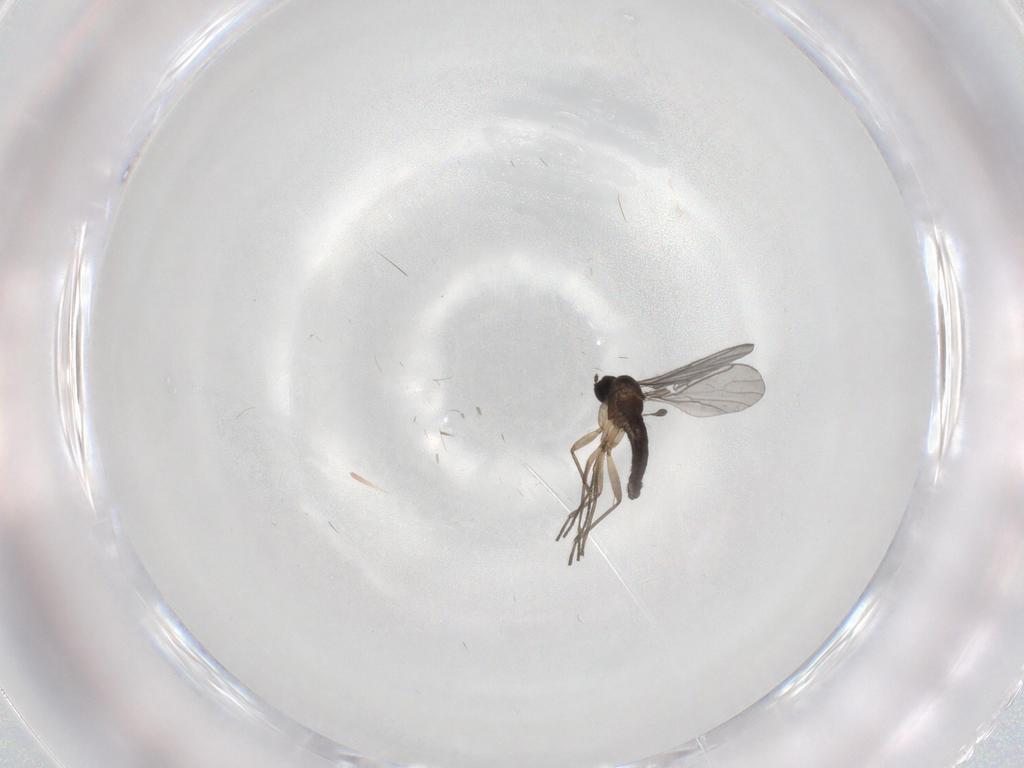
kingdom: Animalia
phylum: Arthropoda
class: Insecta
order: Diptera
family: Sciaridae
